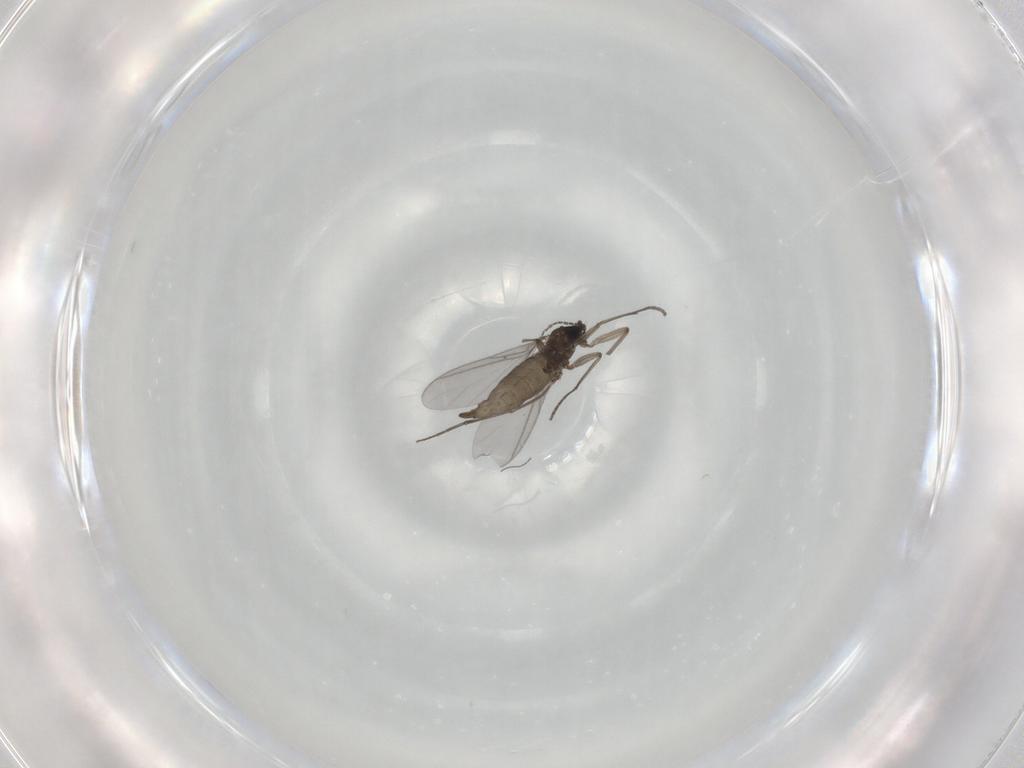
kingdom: Animalia
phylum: Arthropoda
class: Insecta
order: Diptera
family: Sciaridae
